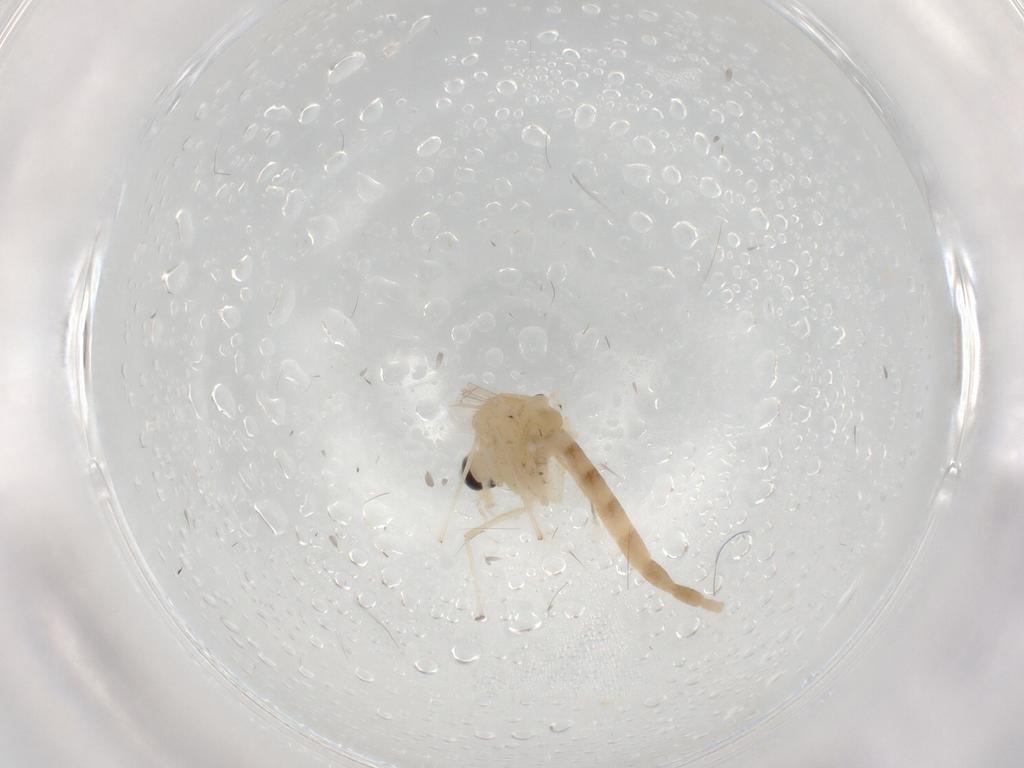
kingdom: Animalia
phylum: Arthropoda
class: Insecta
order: Diptera
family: Chironomidae
